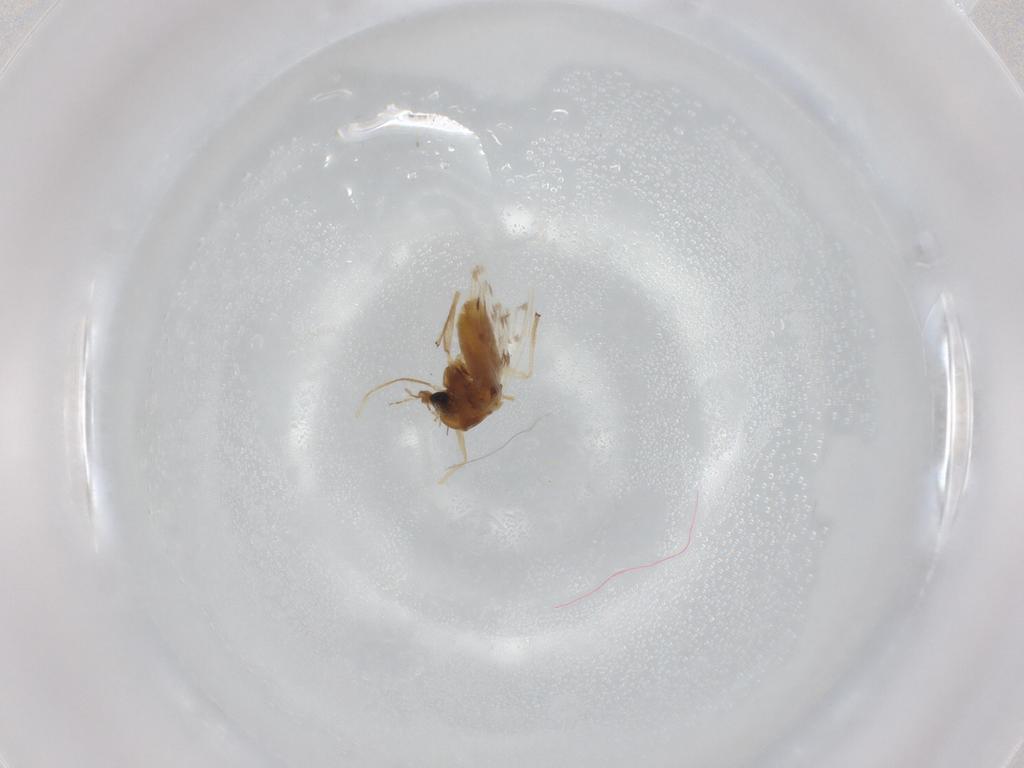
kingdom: Animalia
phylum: Arthropoda
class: Insecta
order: Diptera
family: Chironomidae
